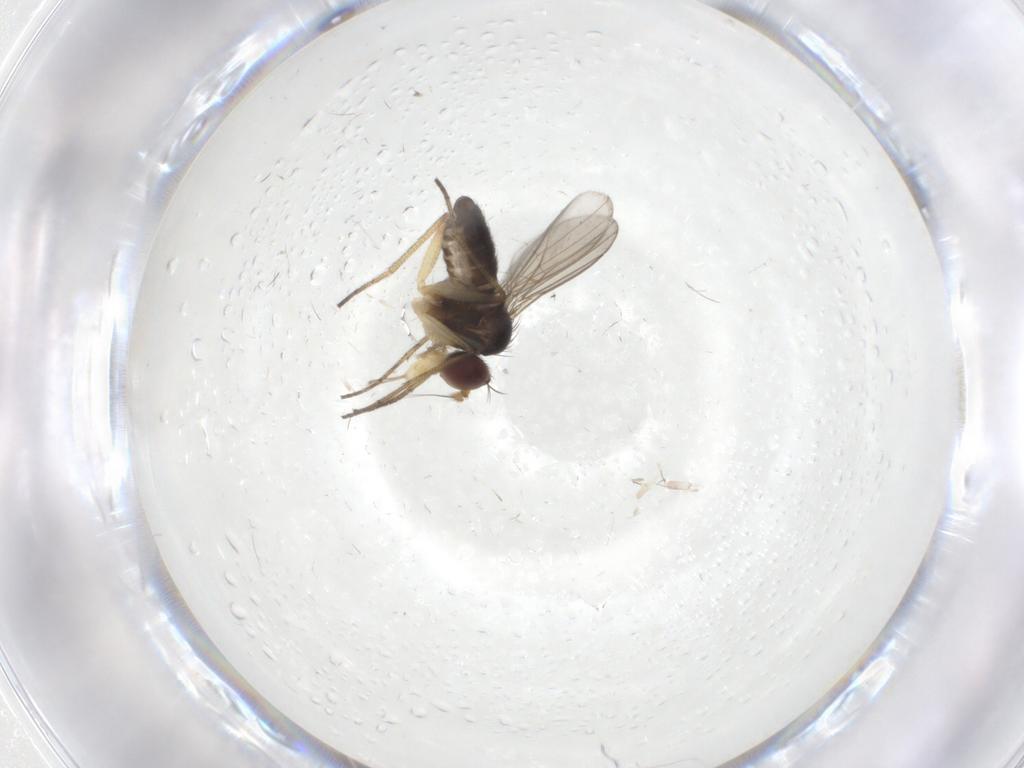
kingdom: Animalia
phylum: Arthropoda
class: Insecta
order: Diptera
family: Dolichopodidae
